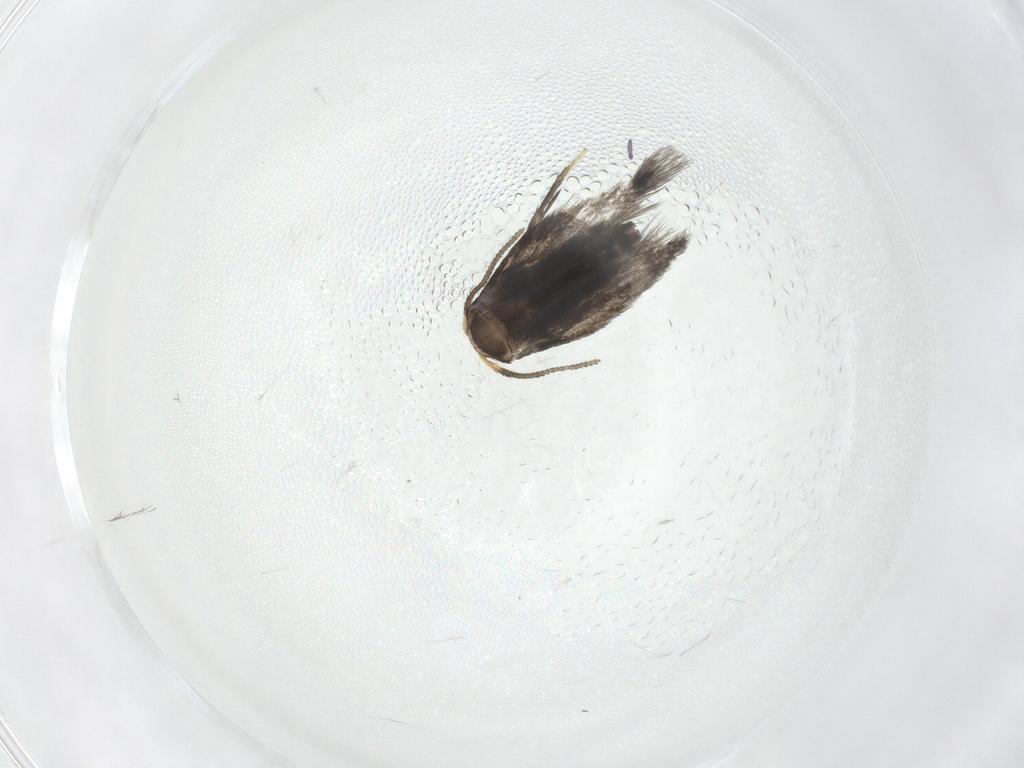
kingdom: Animalia
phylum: Arthropoda
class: Insecta
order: Lepidoptera
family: Nepticulidae
